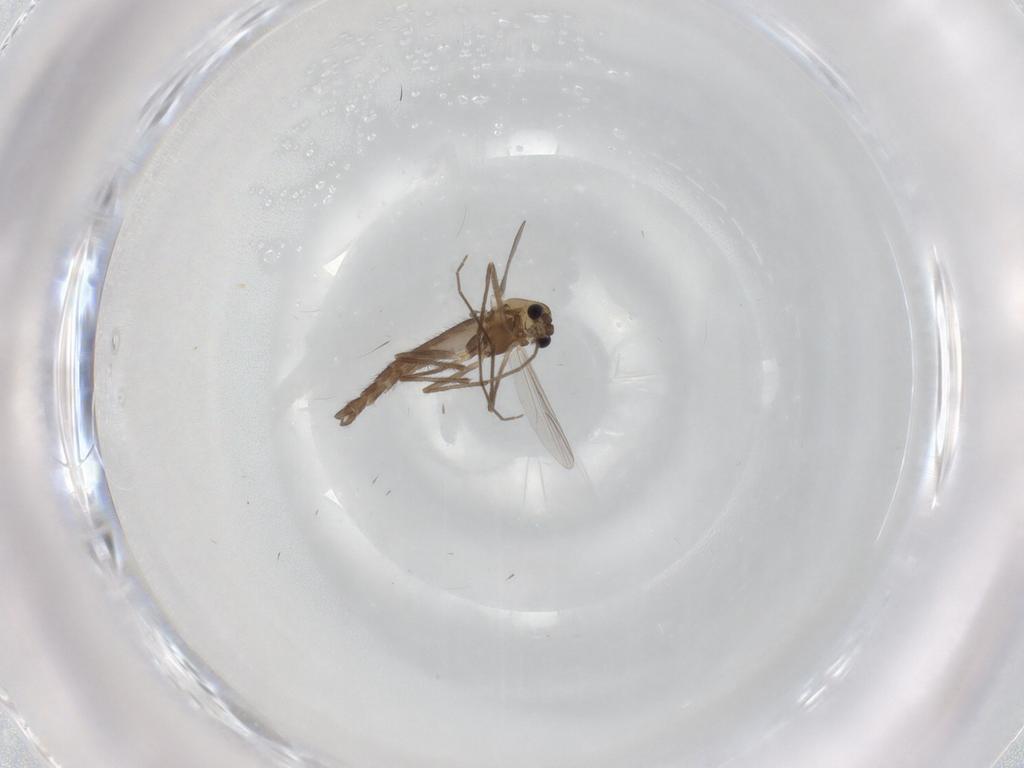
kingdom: Animalia
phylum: Arthropoda
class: Insecta
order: Diptera
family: Chironomidae
